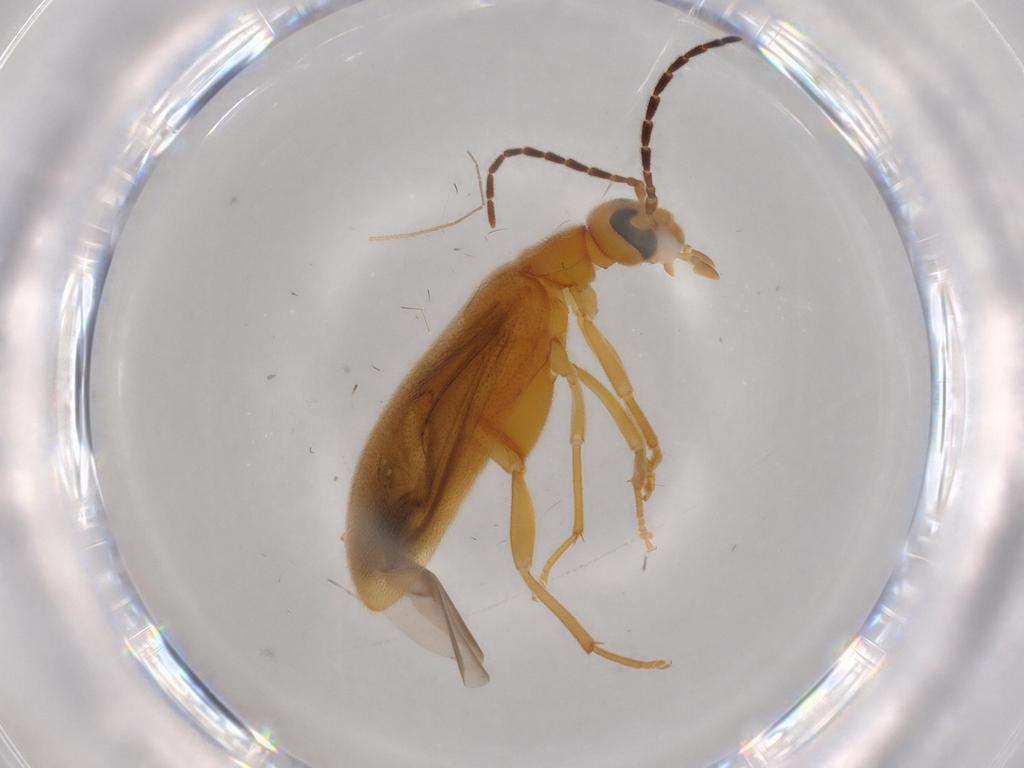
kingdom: Animalia
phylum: Arthropoda
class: Insecta
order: Coleoptera
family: Scraptiidae
